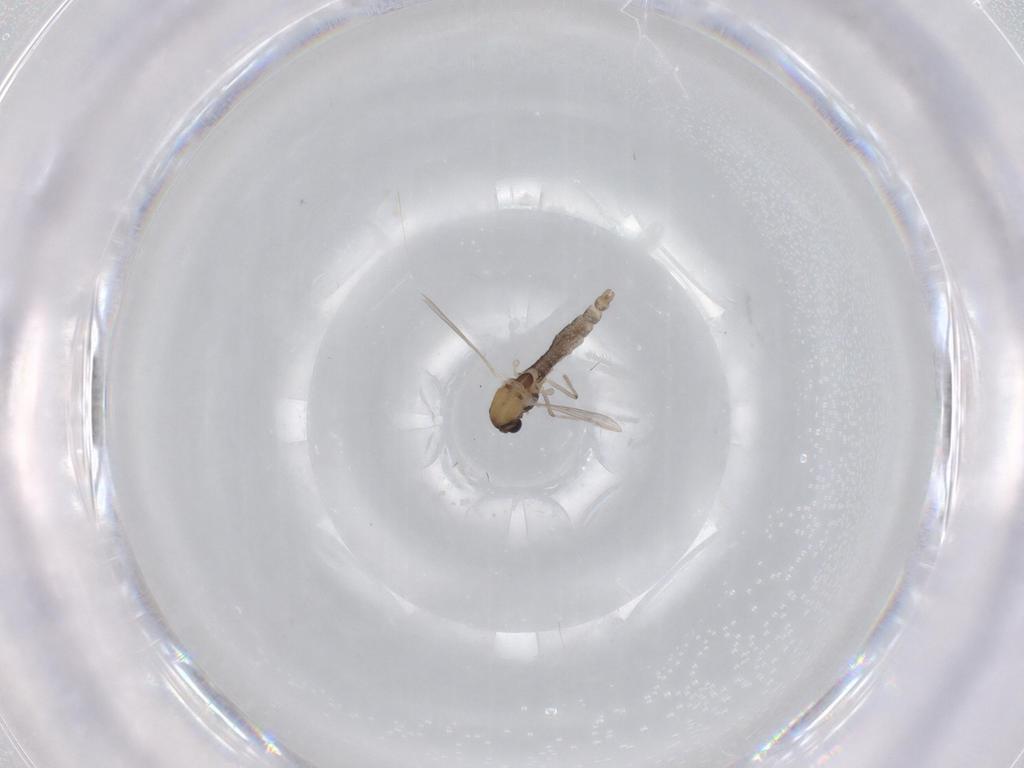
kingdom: Animalia
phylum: Arthropoda
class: Insecta
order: Diptera
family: Chironomidae
